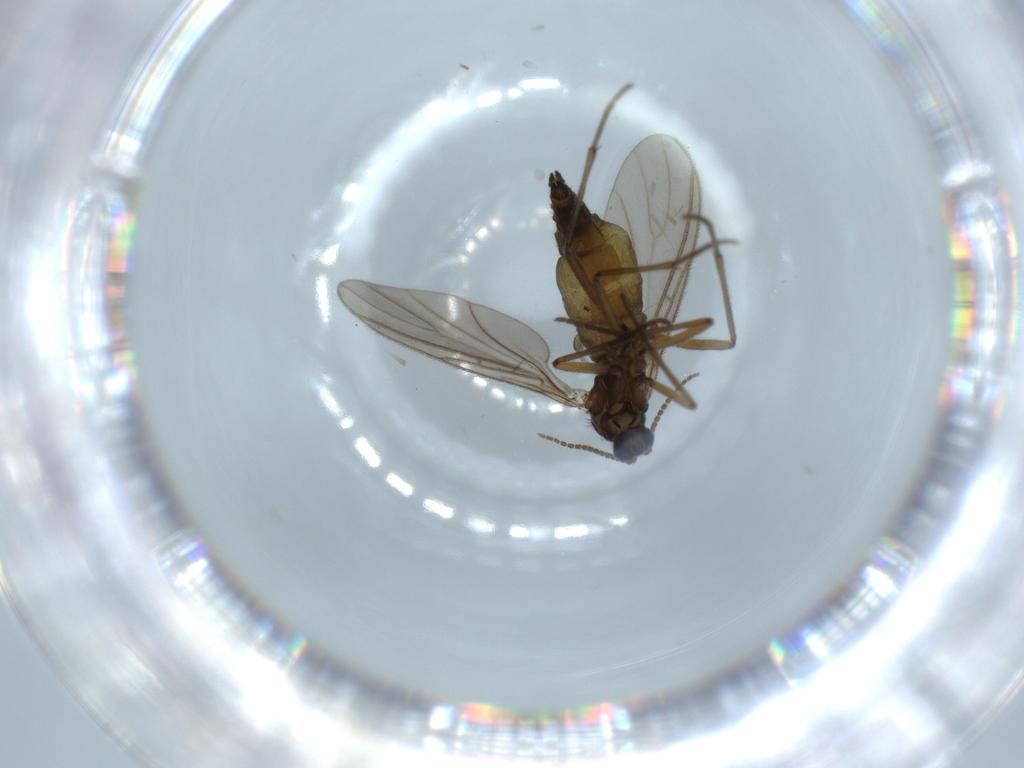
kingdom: Animalia
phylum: Arthropoda
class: Insecta
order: Diptera
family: Sciaridae
